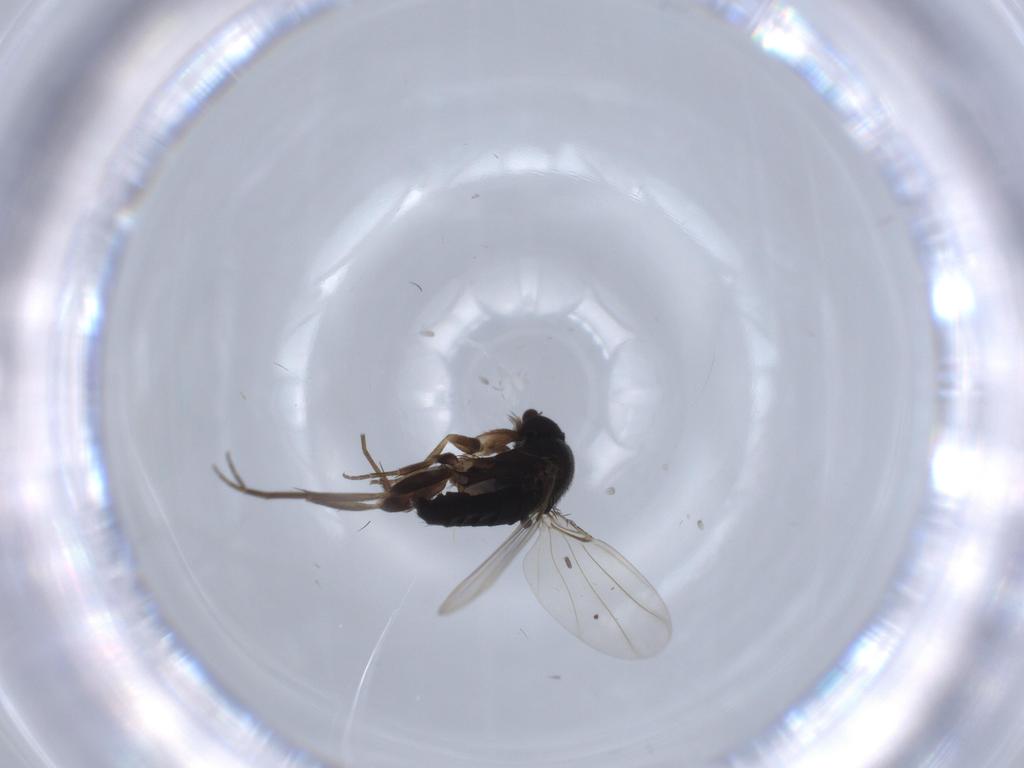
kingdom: Animalia
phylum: Arthropoda
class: Insecta
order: Diptera
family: Phoridae
